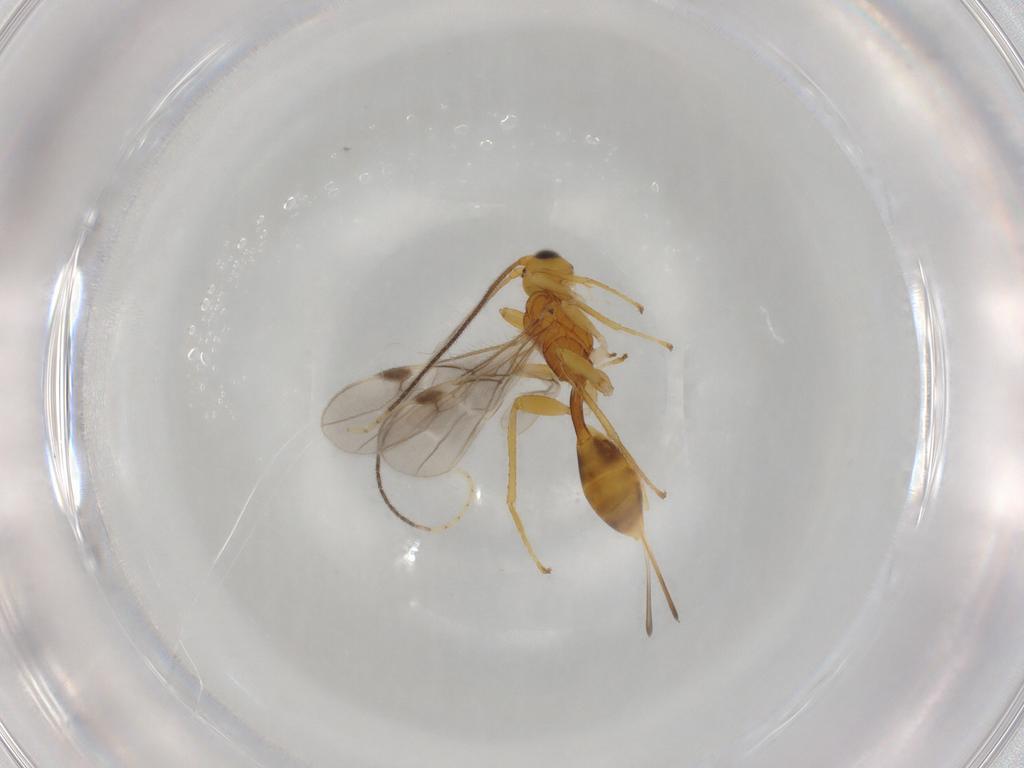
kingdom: Animalia
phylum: Arthropoda
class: Insecta
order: Hymenoptera
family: Braconidae
